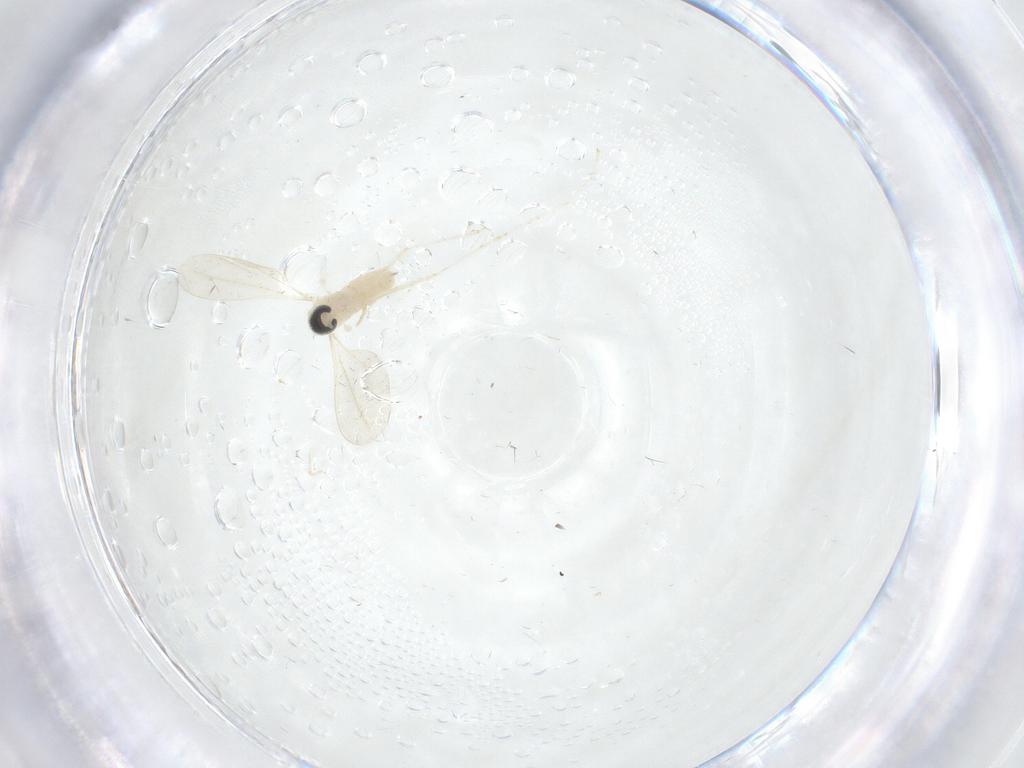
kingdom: Animalia
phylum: Arthropoda
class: Insecta
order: Diptera
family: Cecidomyiidae
